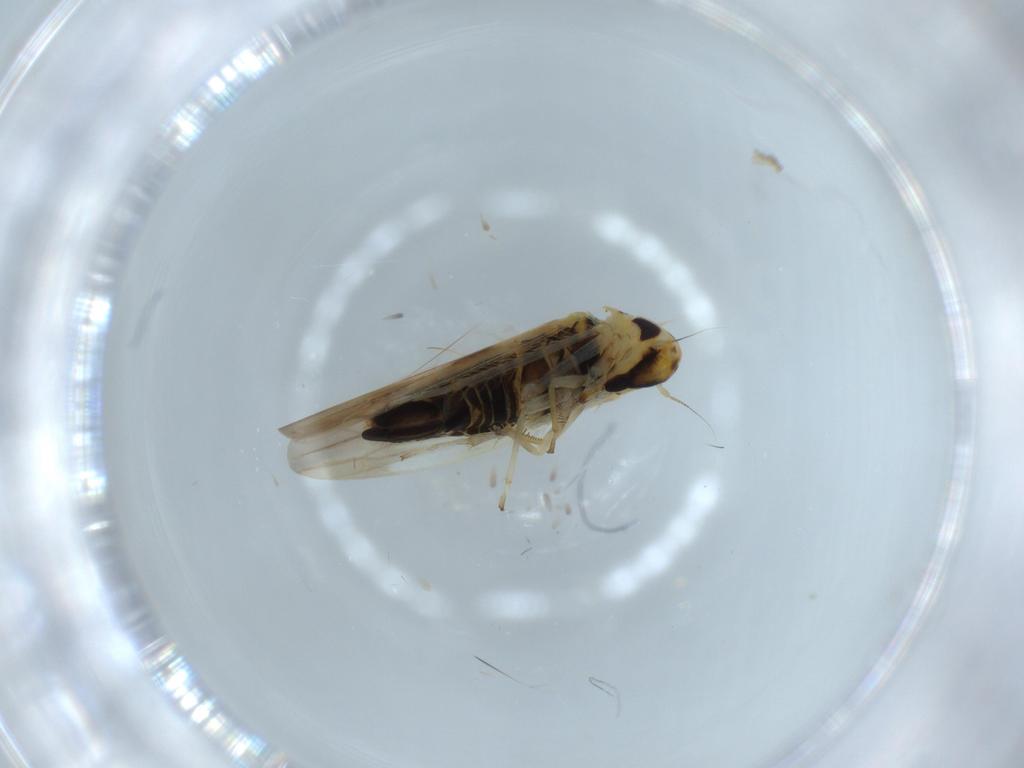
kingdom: Animalia
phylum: Arthropoda
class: Insecta
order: Hemiptera
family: Cicadellidae
